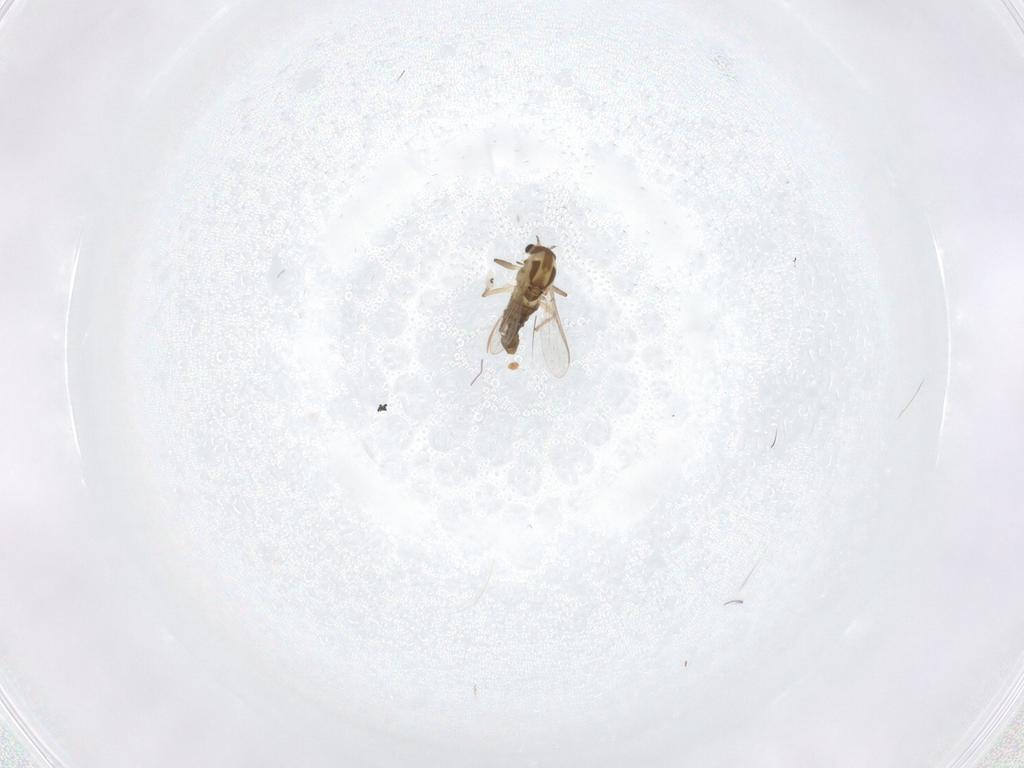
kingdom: Animalia
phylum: Arthropoda
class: Insecta
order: Diptera
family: Chironomidae
